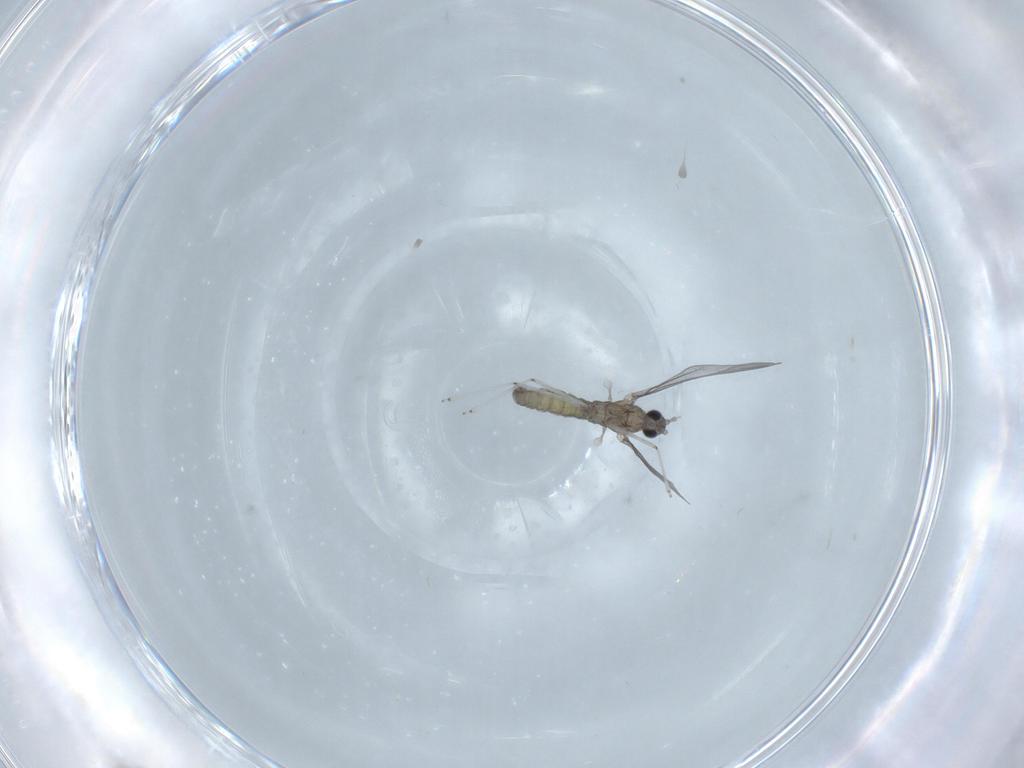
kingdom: Animalia
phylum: Arthropoda
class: Insecta
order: Diptera
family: Cecidomyiidae
